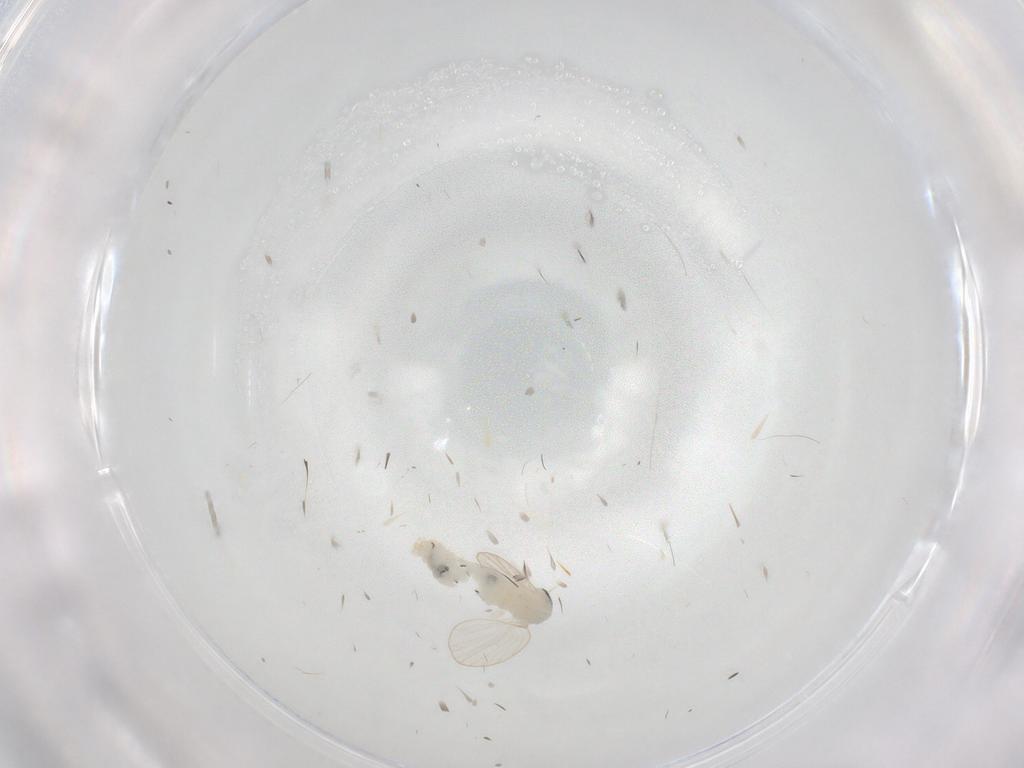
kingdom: Animalia
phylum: Arthropoda
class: Insecta
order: Diptera
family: Psychodidae
